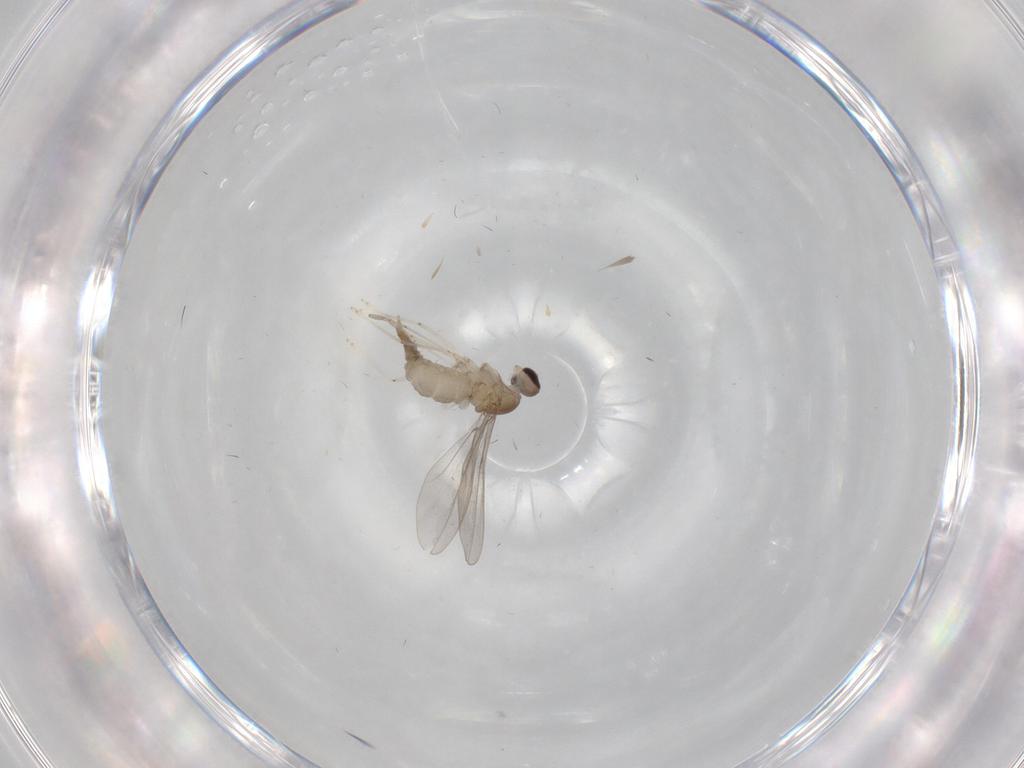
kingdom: Animalia
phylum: Arthropoda
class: Insecta
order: Diptera
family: Cecidomyiidae
